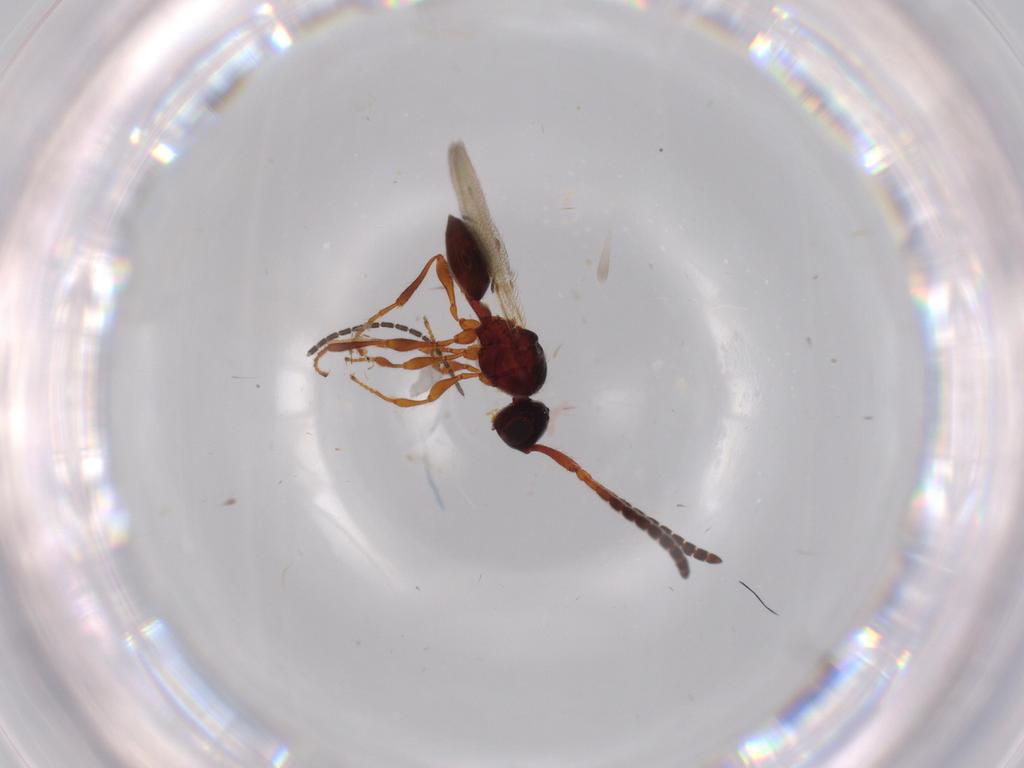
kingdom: Animalia
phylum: Arthropoda
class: Insecta
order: Hymenoptera
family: Diapriidae
